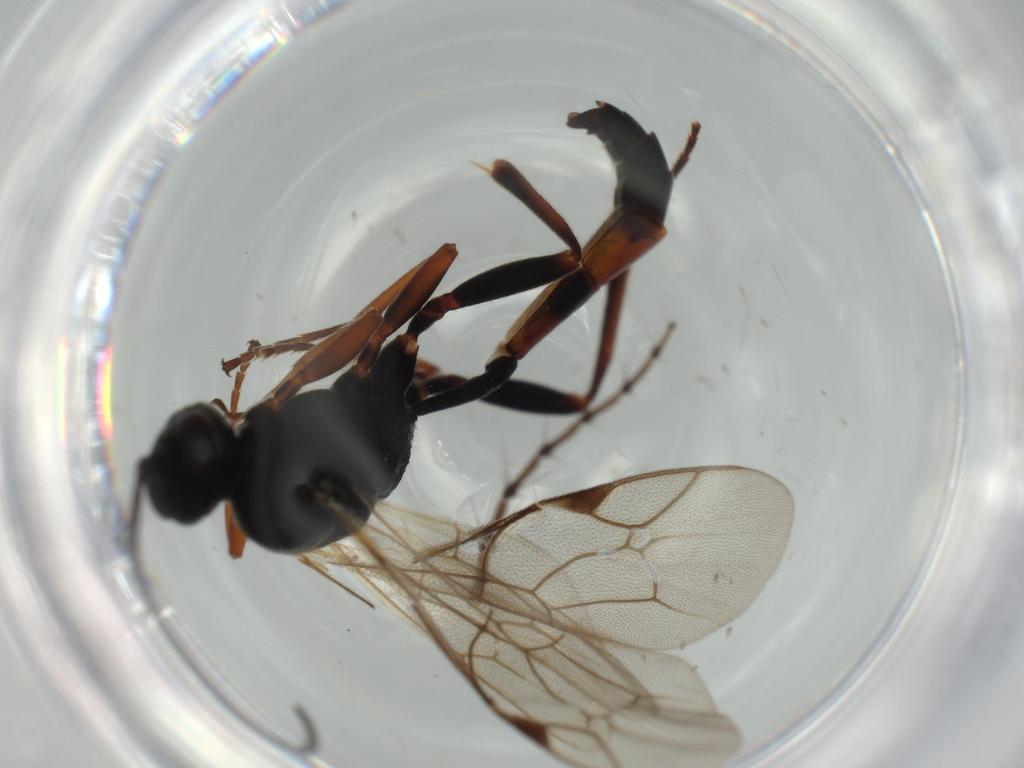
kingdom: Animalia
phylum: Arthropoda
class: Insecta
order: Hymenoptera
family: Ichneumonidae
